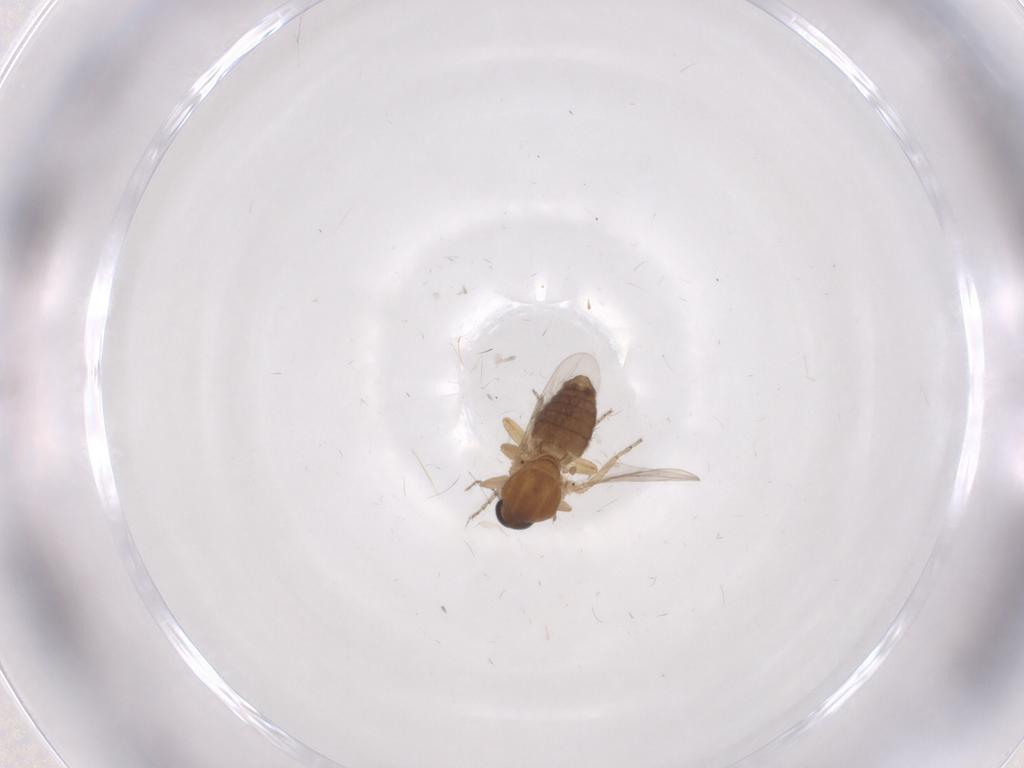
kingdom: Animalia
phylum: Arthropoda
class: Insecta
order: Diptera
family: Ceratopogonidae
